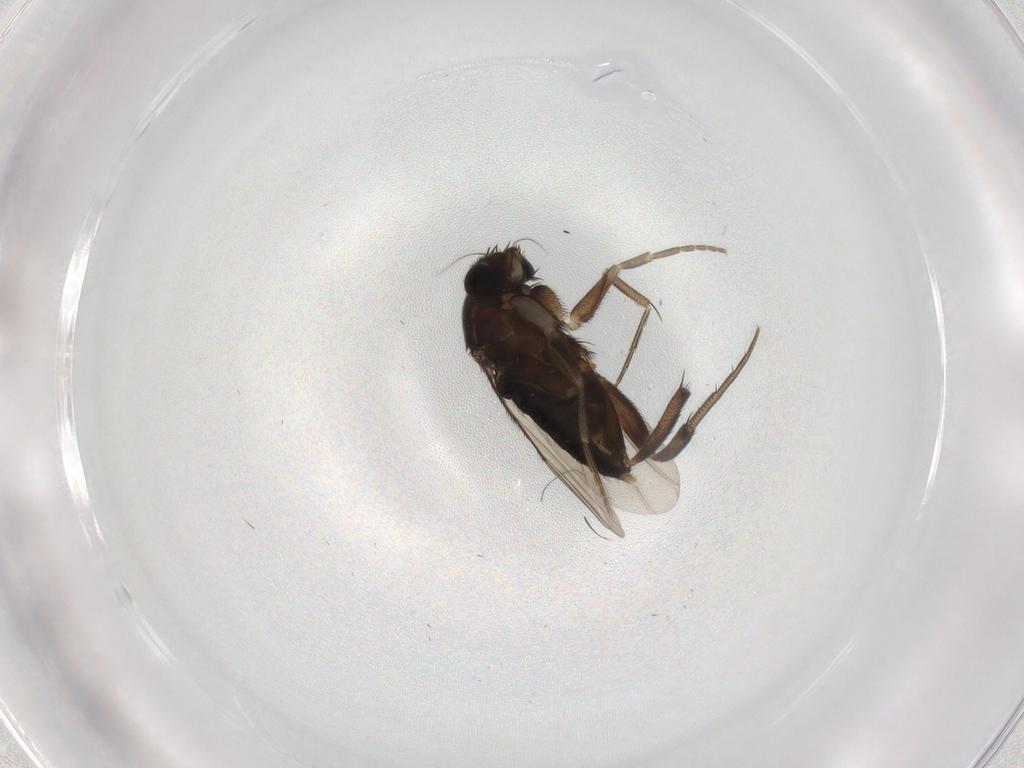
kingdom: Animalia
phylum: Arthropoda
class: Insecta
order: Diptera
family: Phoridae
